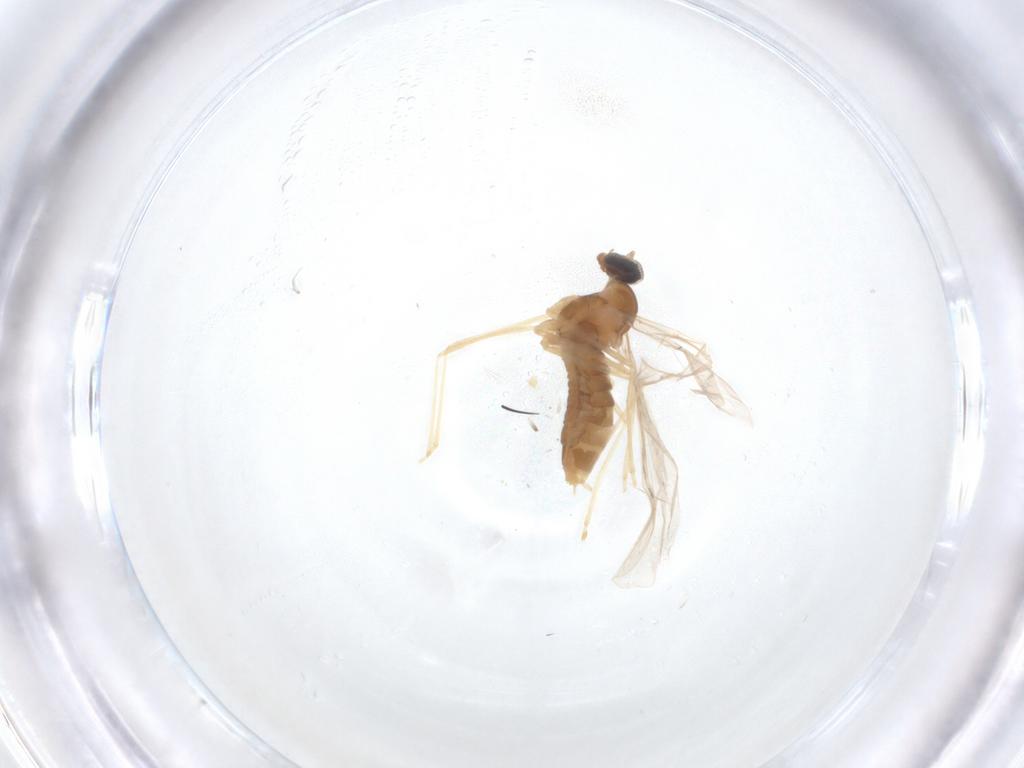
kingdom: Animalia
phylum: Arthropoda
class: Insecta
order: Diptera
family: Cecidomyiidae
